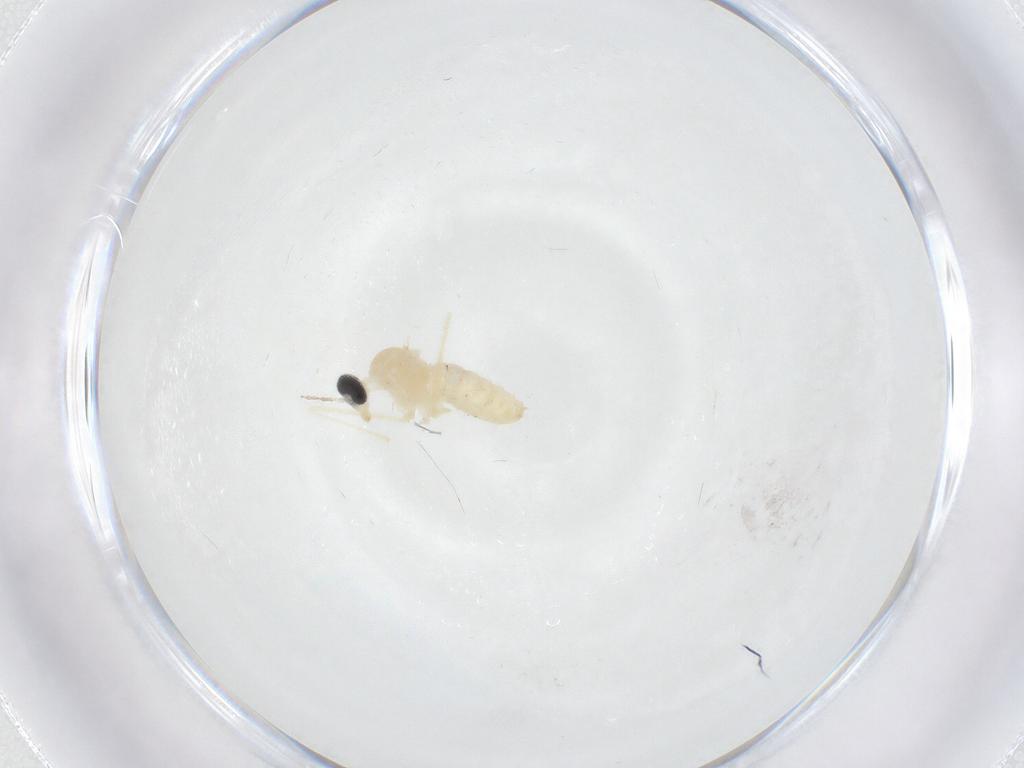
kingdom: Animalia
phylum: Arthropoda
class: Insecta
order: Diptera
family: Cecidomyiidae
